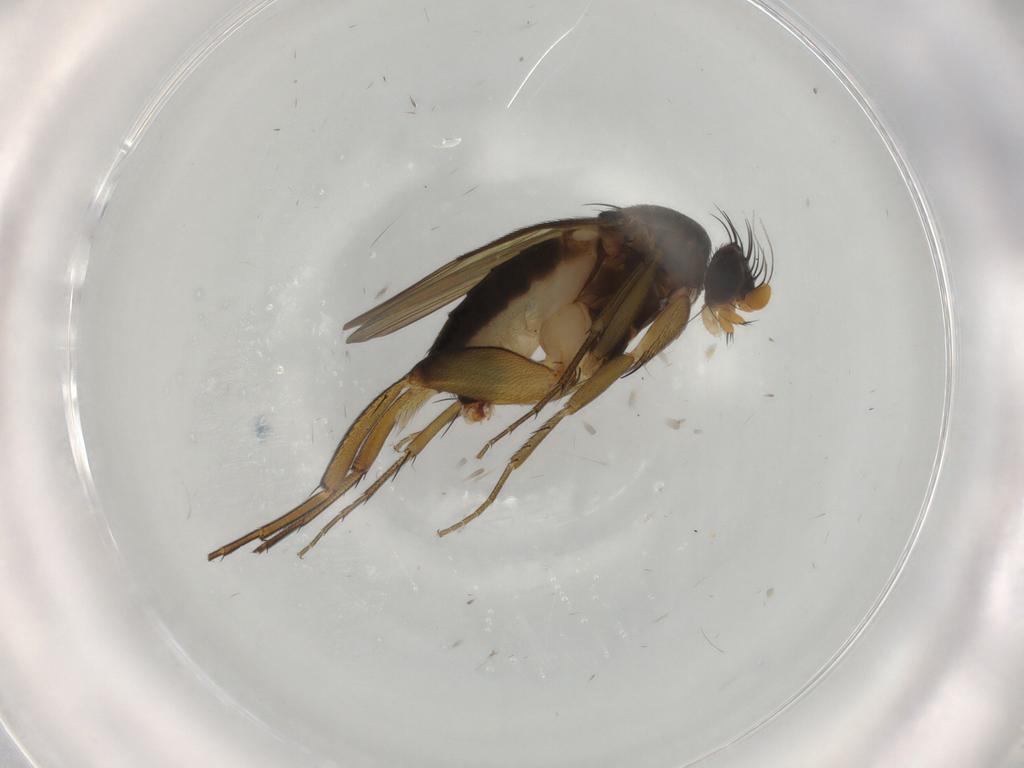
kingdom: Animalia
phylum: Arthropoda
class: Insecta
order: Diptera
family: Phoridae
